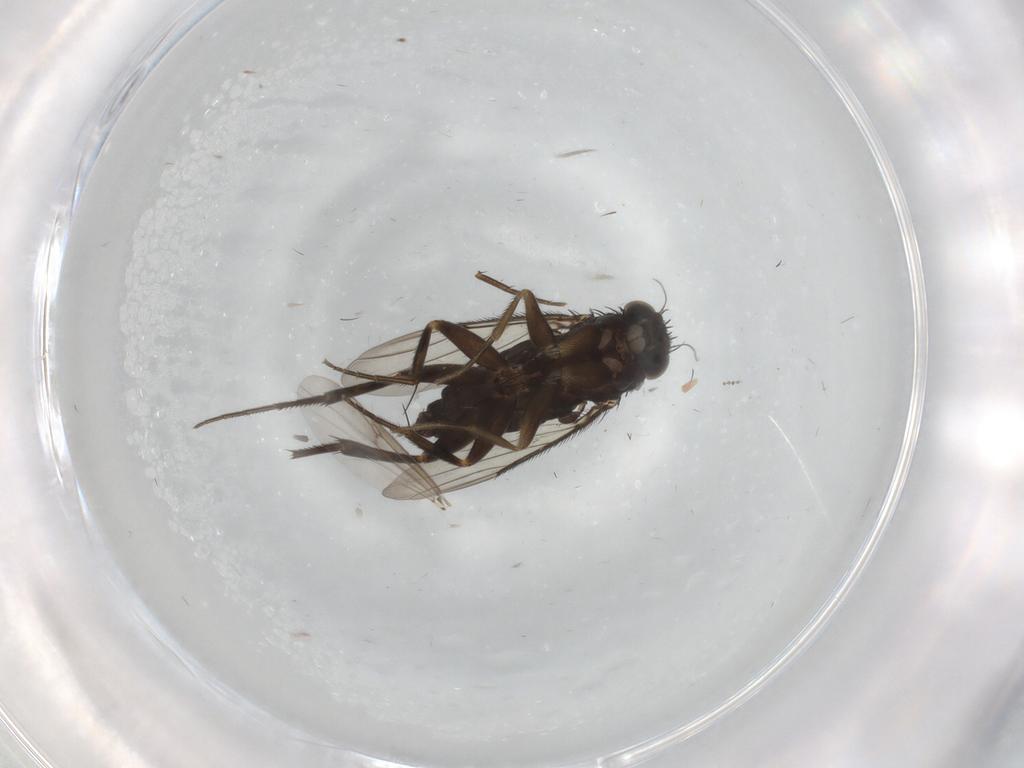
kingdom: Animalia
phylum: Arthropoda
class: Insecta
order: Diptera
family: Phoridae
